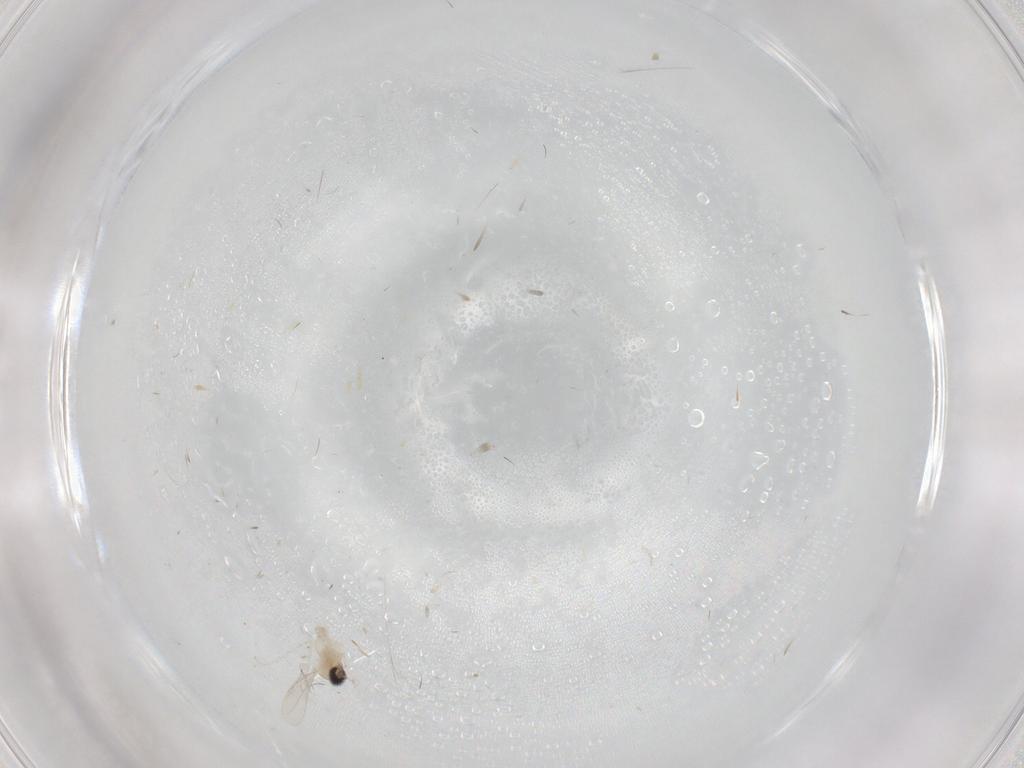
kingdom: Animalia
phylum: Arthropoda
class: Insecta
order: Diptera
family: Cecidomyiidae
